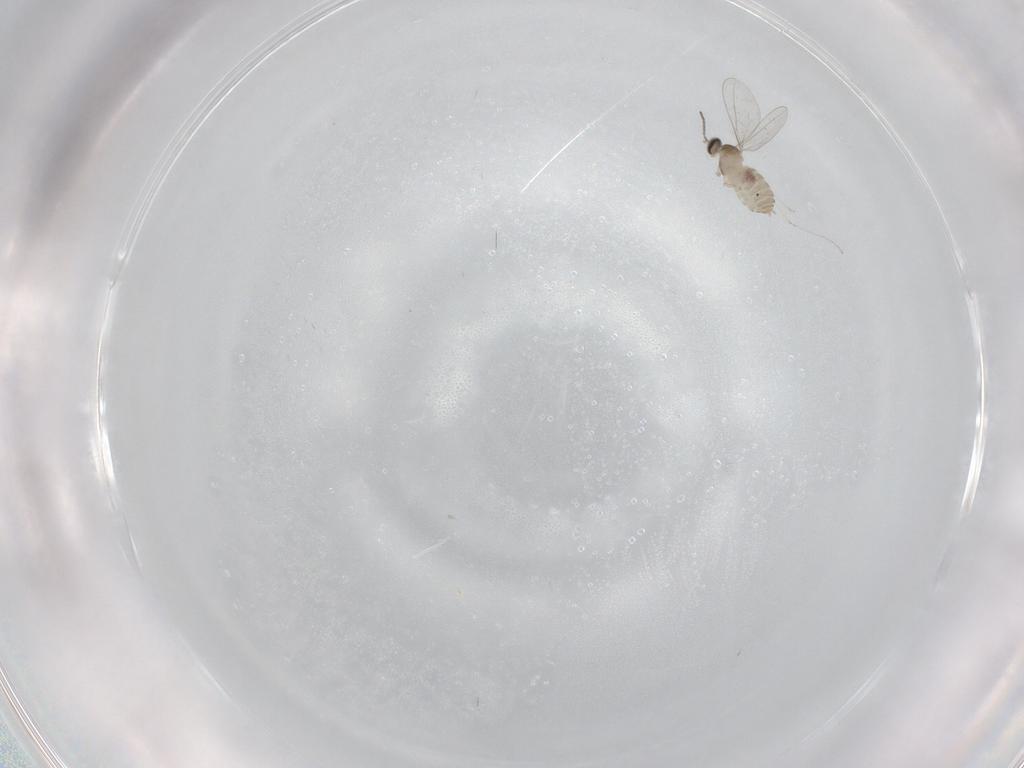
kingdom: Animalia
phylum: Arthropoda
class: Insecta
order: Diptera
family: Cecidomyiidae
